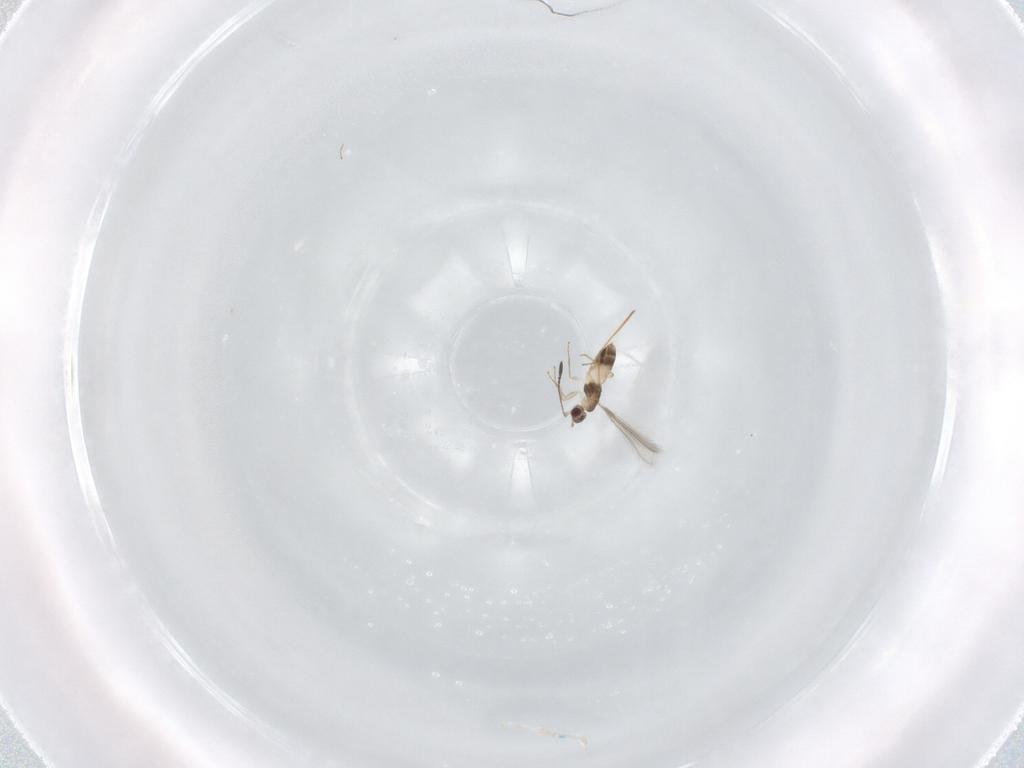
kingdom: Animalia
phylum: Arthropoda
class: Insecta
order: Hymenoptera
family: Mymaridae
